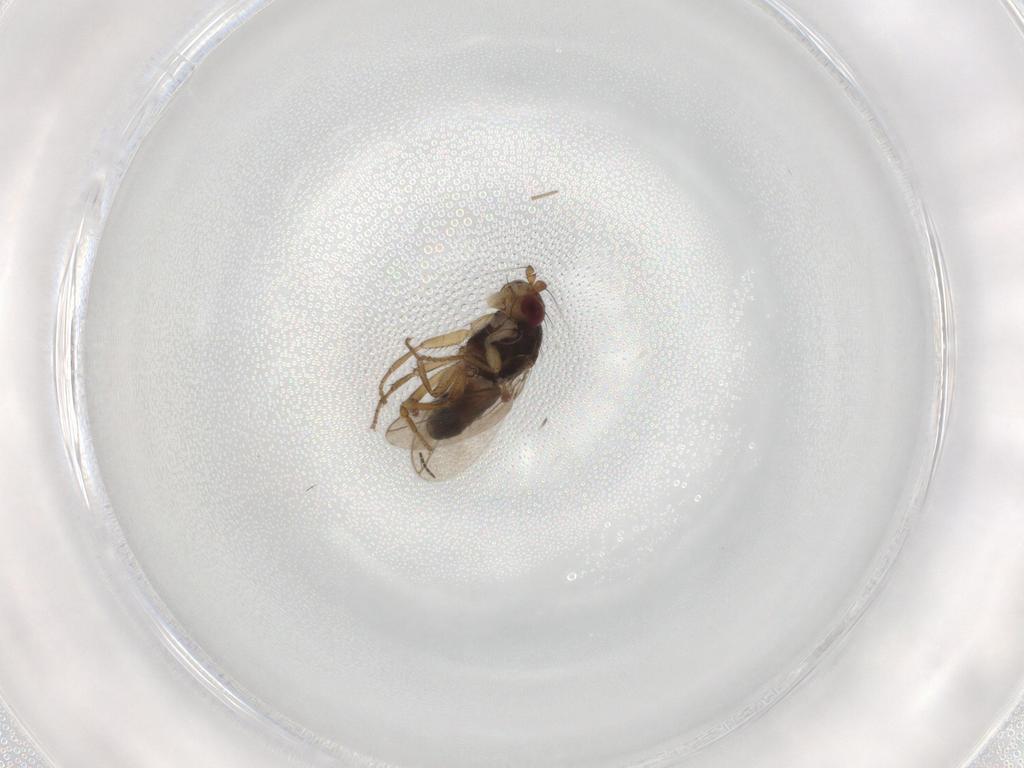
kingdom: Animalia
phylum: Arthropoda
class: Insecta
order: Diptera
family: Sphaeroceridae
